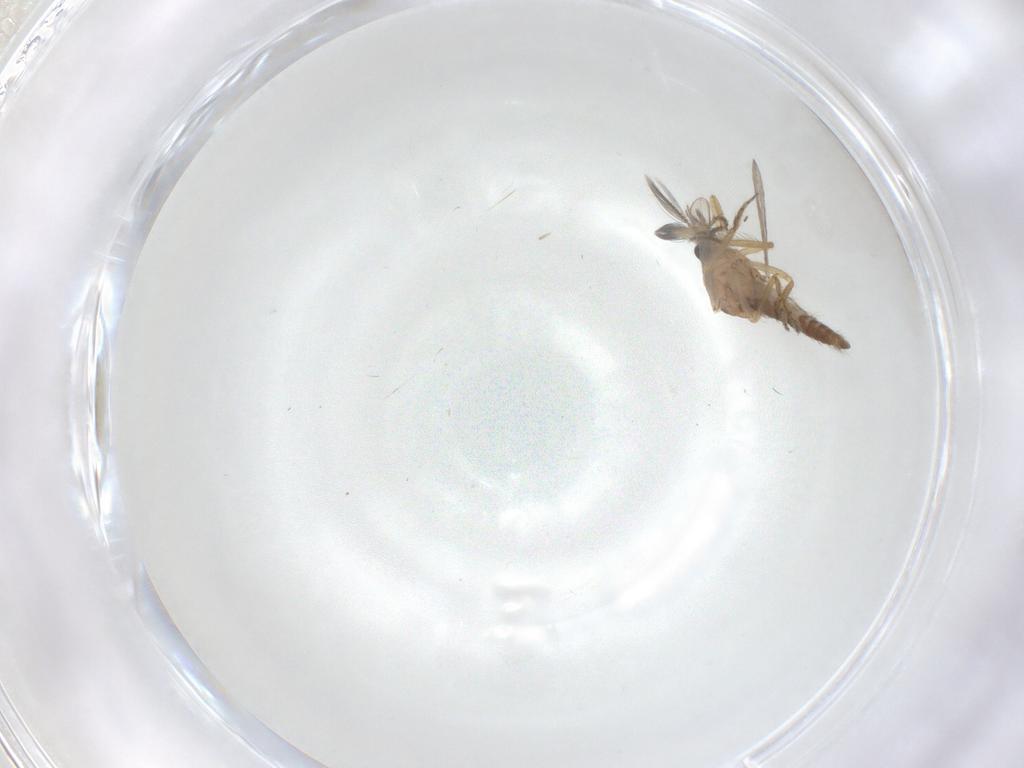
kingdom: Animalia
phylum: Arthropoda
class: Insecta
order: Diptera
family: Ceratopogonidae
